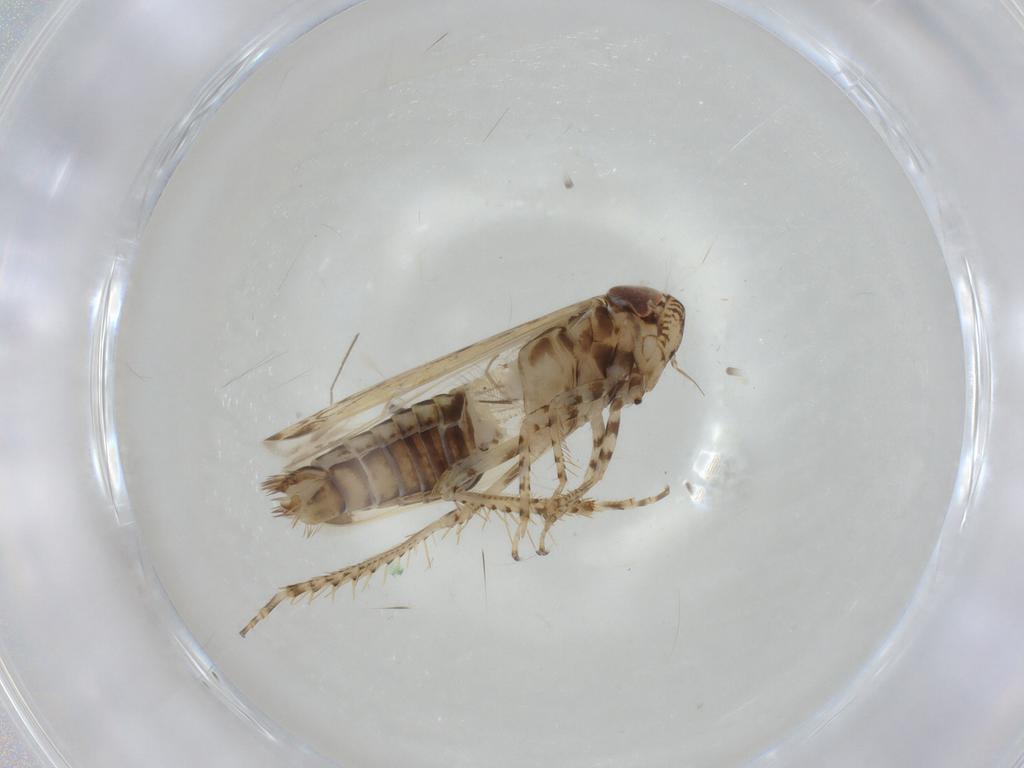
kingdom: Animalia
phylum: Arthropoda
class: Insecta
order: Hemiptera
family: Cicadellidae
